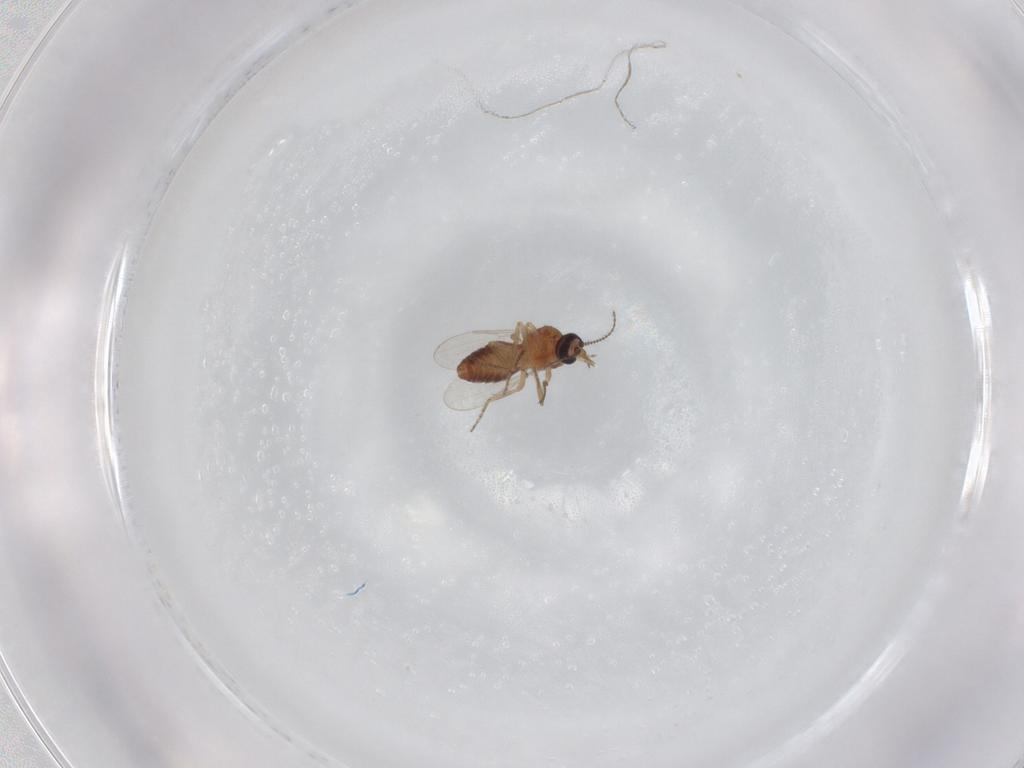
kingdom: Animalia
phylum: Arthropoda
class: Insecta
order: Diptera
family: Ceratopogonidae
